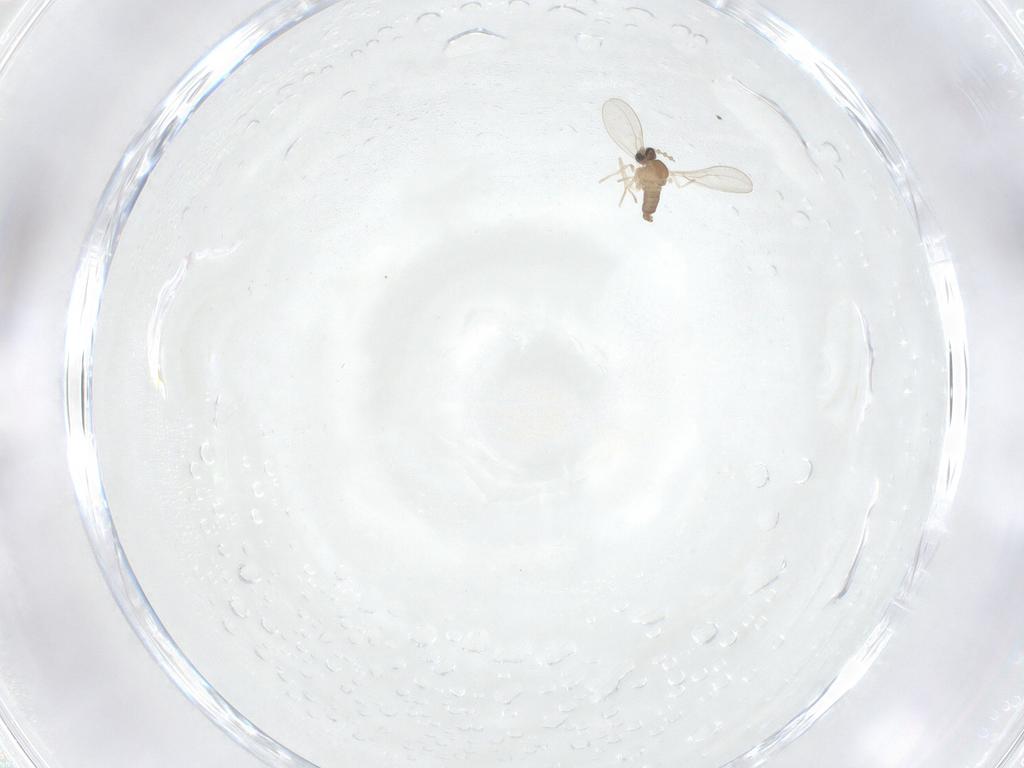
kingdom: Animalia
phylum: Arthropoda
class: Insecta
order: Diptera
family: Cecidomyiidae
